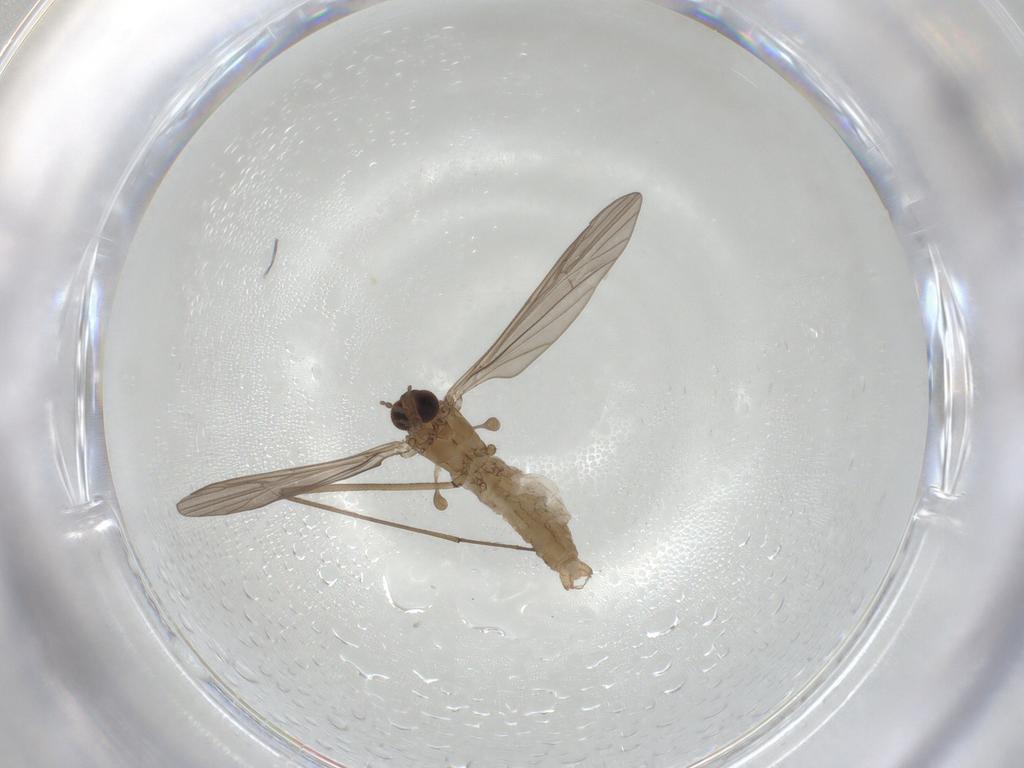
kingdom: Animalia
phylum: Arthropoda
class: Insecta
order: Diptera
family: Limoniidae
